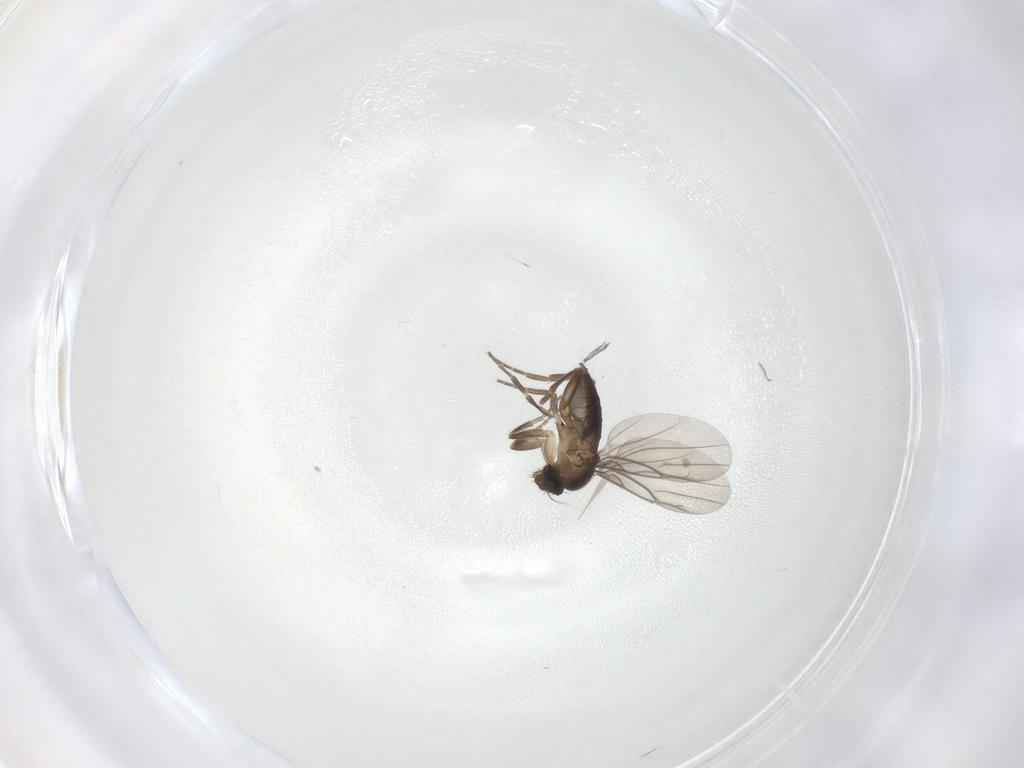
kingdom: Animalia
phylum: Arthropoda
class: Insecta
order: Diptera
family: Phoridae
